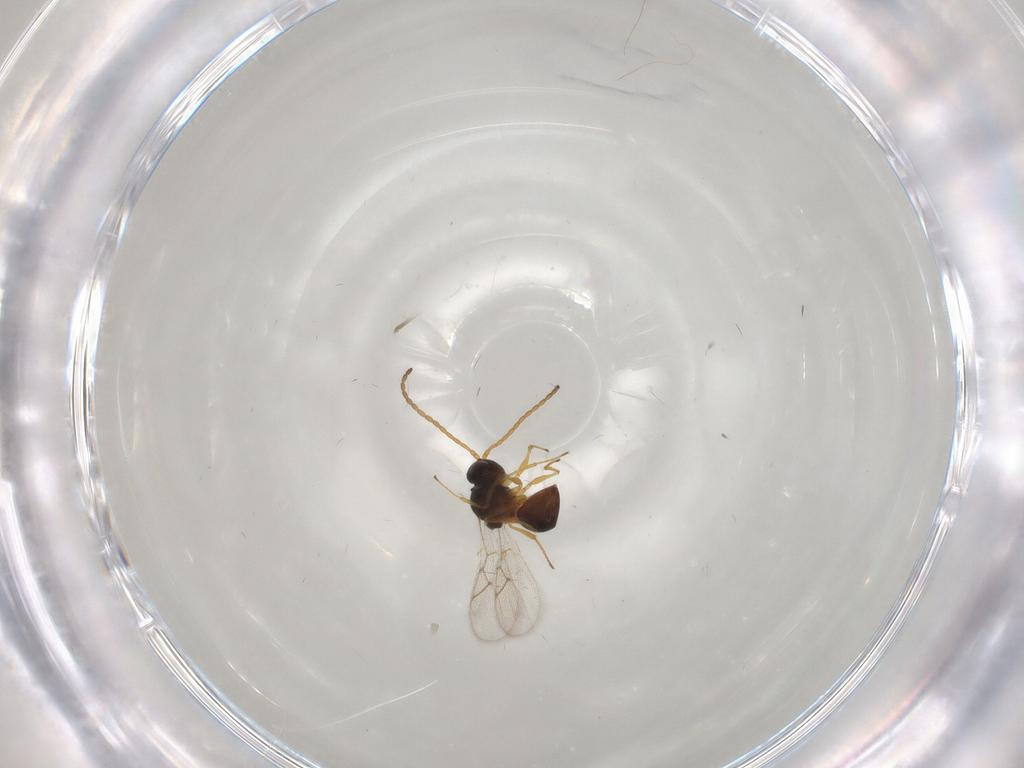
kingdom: Animalia
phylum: Arthropoda
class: Insecta
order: Hymenoptera
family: Figitidae
